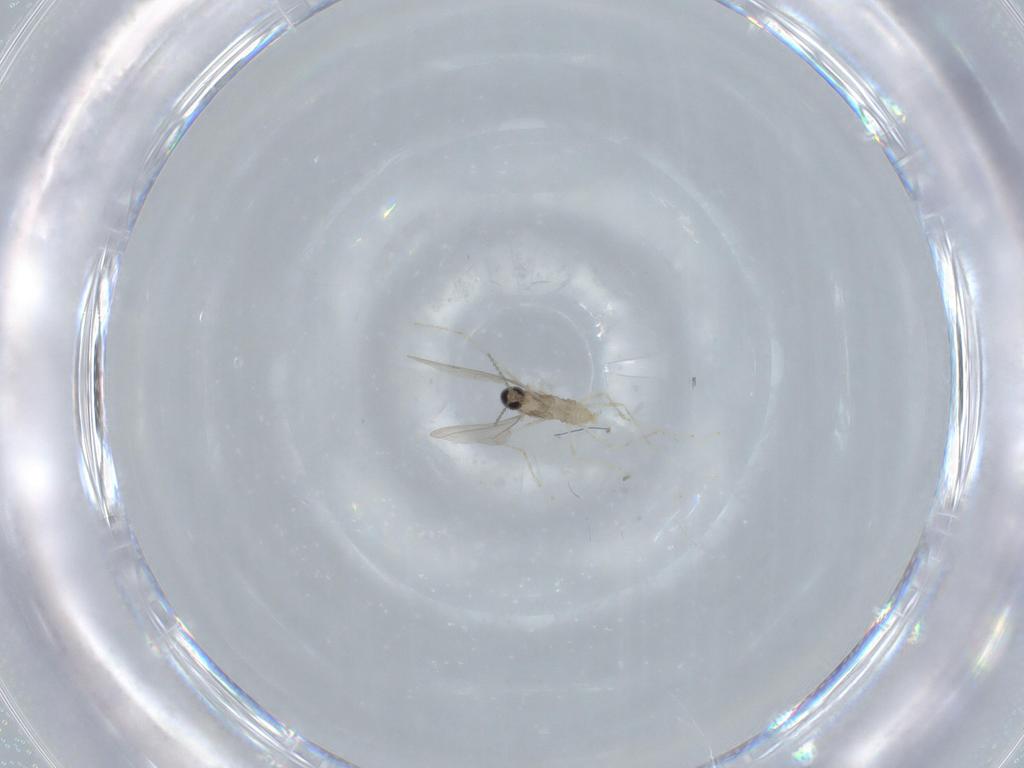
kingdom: Animalia
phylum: Arthropoda
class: Insecta
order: Diptera
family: Cecidomyiidae
